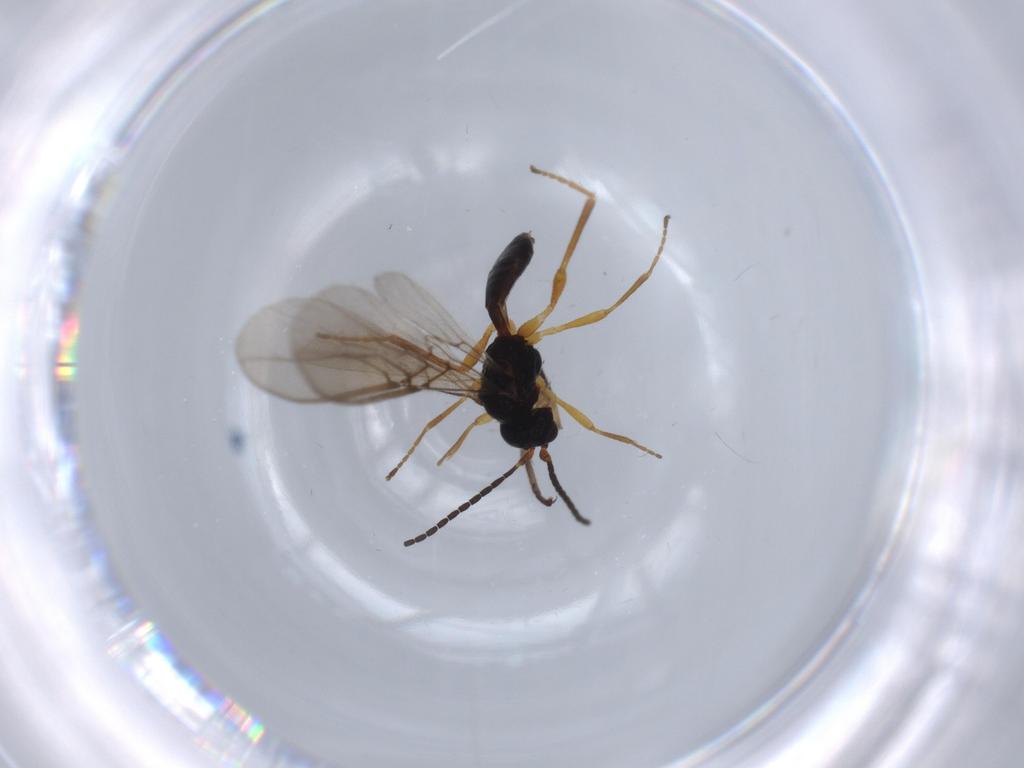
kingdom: Animalia
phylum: Arthropoda
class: Insecta
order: Hymenoptera
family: Braconidae
